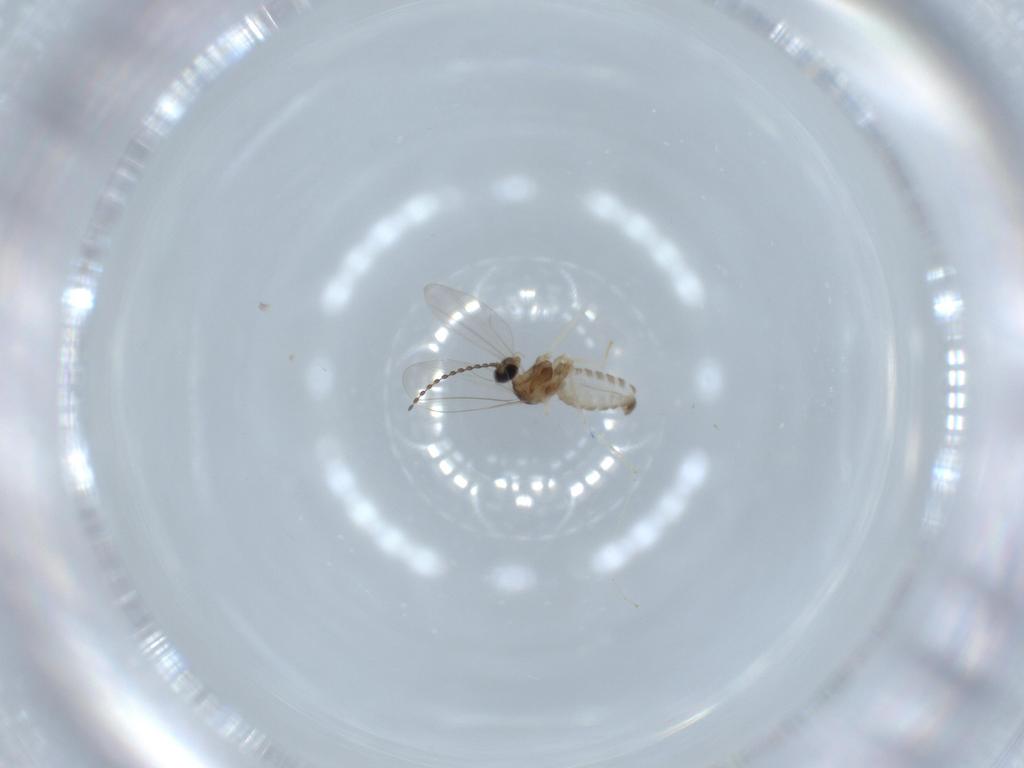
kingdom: Animalia
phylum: Arthropoda
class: Insecta
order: Diptera
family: Cecidomyiidae
